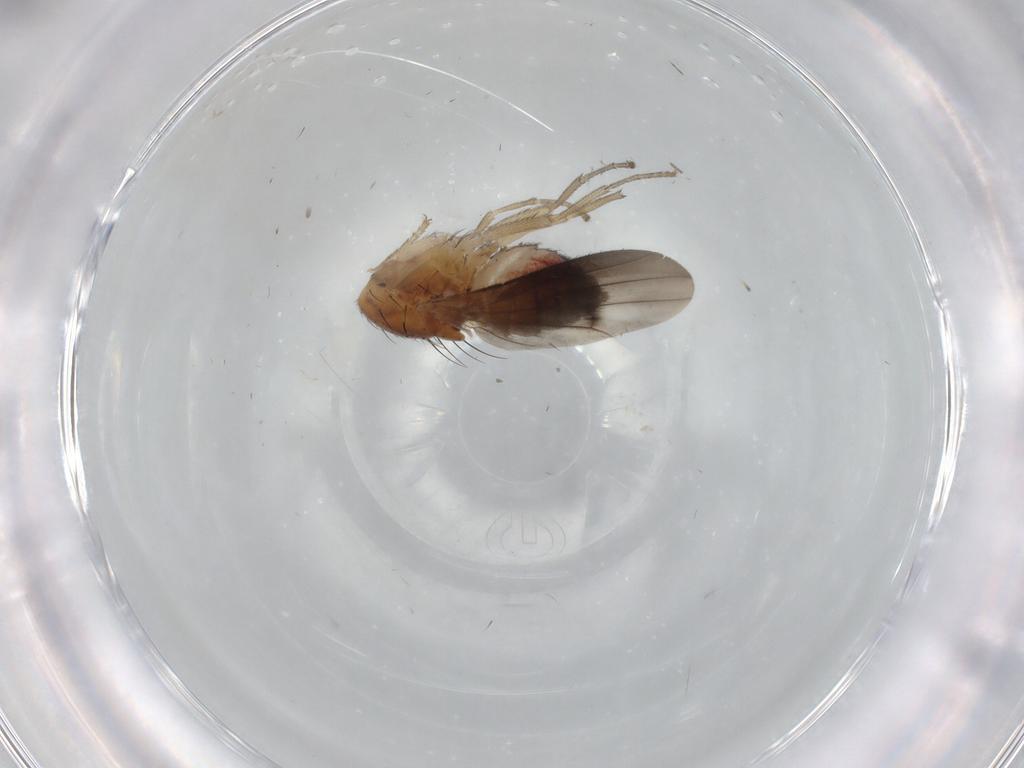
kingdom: Animalia
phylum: Arthropoda
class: Insecta
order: Diptera
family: Heleomyzidae
